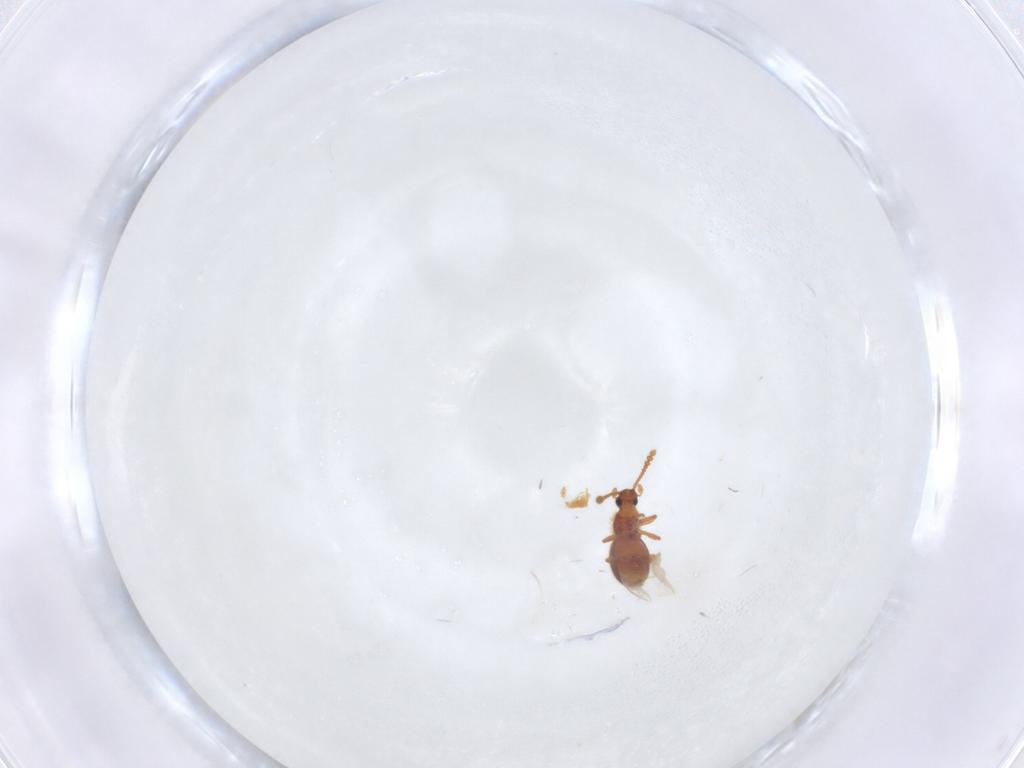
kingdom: Animalia
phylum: Arthropoda
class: Insecta
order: Coleoptera
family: Staphylinidae
